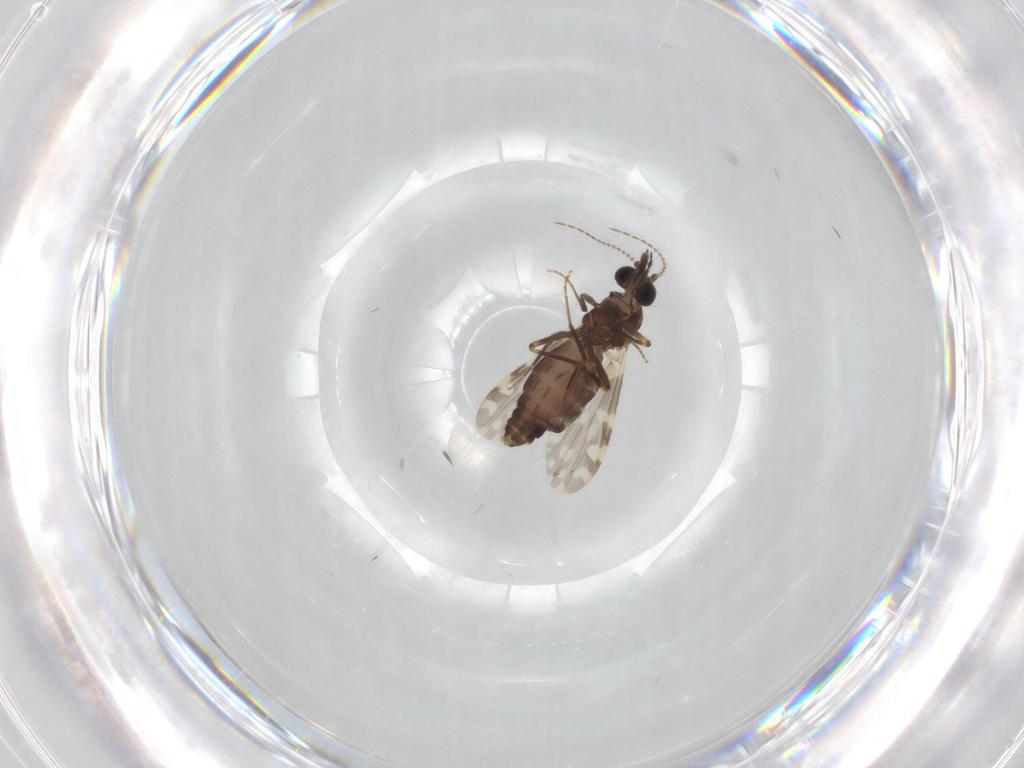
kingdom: Animalia
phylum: Arthropoda
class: Insecta
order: Diptera
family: Ceratopogonidae
